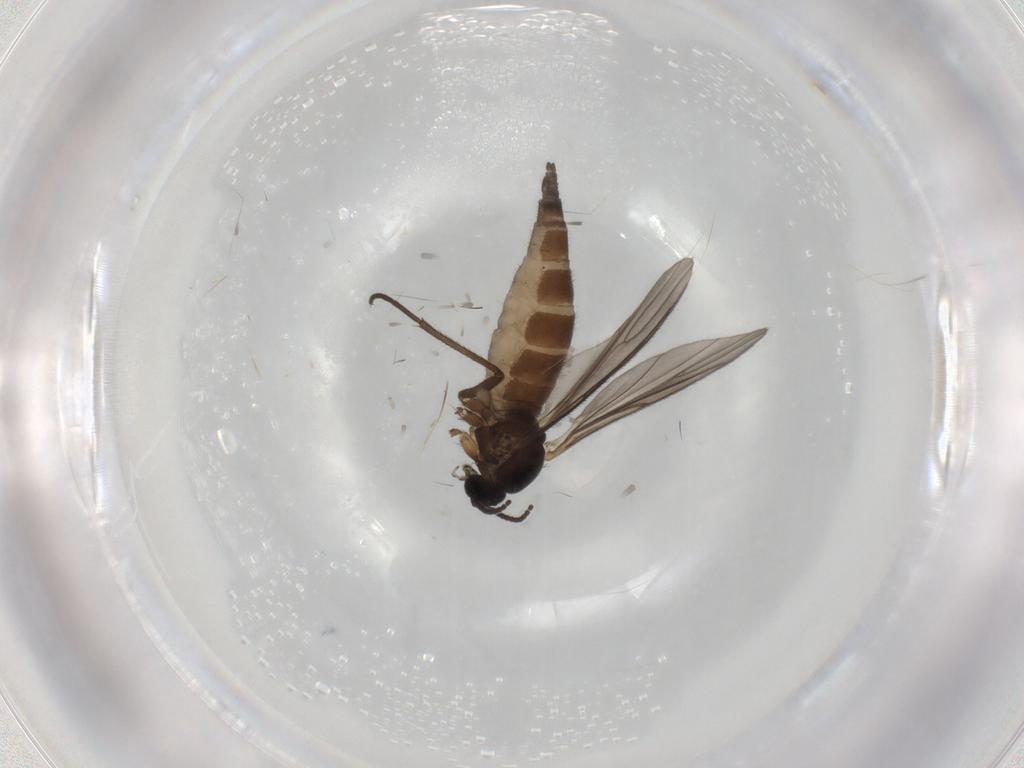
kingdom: Animalia
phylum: Arthropoda
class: Insecta
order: Diptera
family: Sciaridae
